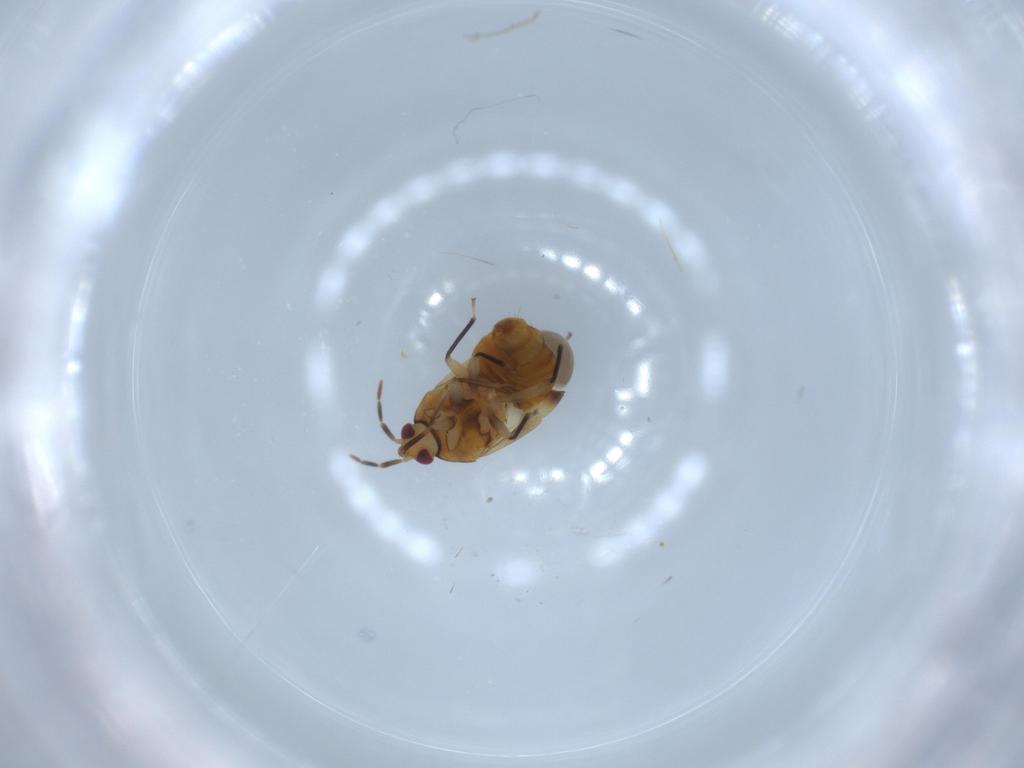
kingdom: Animalia
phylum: Arthropoda
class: Insecta
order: Hemiptera
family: Anthocoridae
